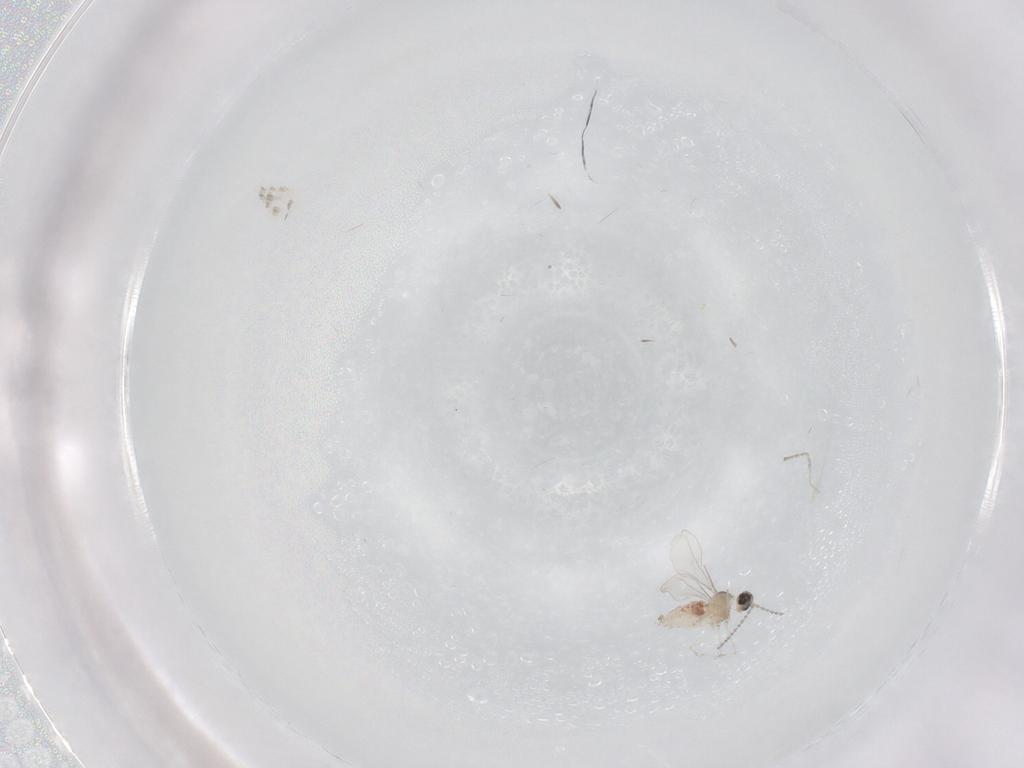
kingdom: Animalia
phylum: Arthropoda
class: Insecta
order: Diptera
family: Cecidomyiidae
